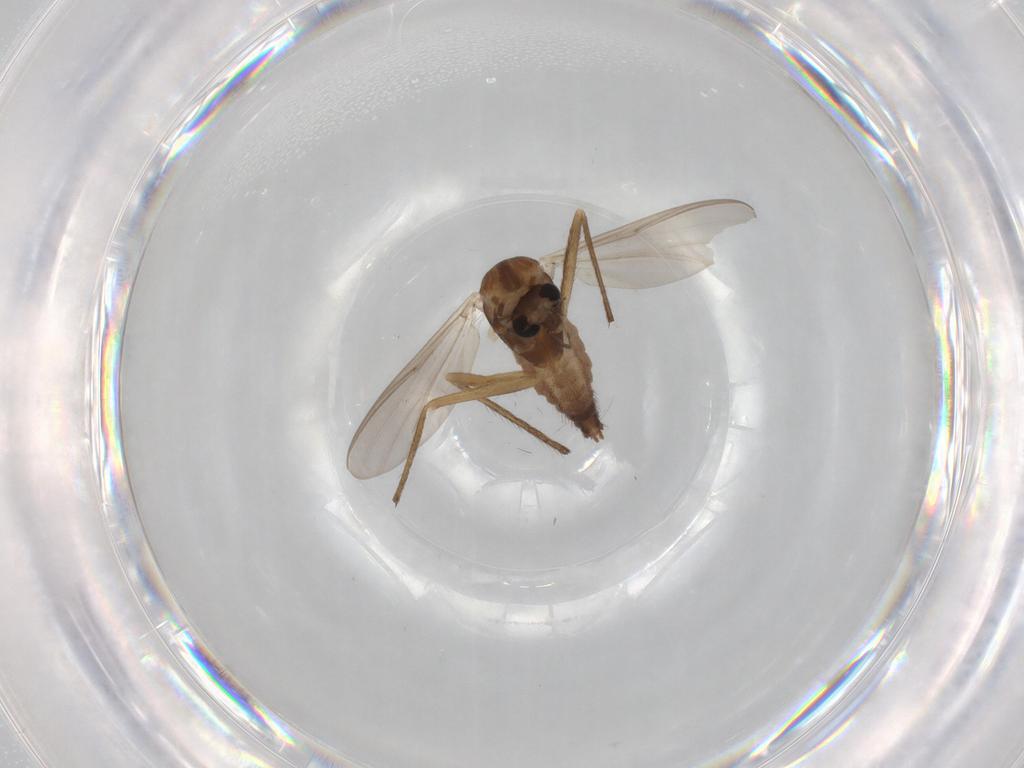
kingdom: Animalia
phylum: Arthropoda
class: Insecta
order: Diptera
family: Chironomidae
